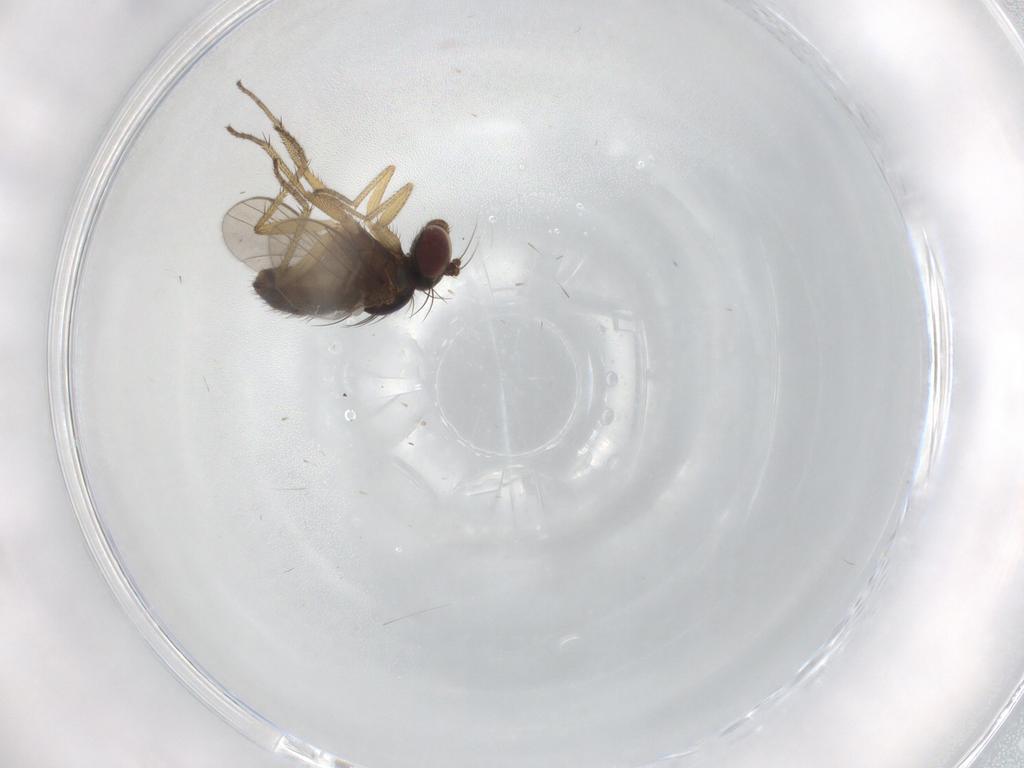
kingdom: Animalia
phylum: Arthropoda
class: Insecta
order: Diptera
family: Dolichopodidae
